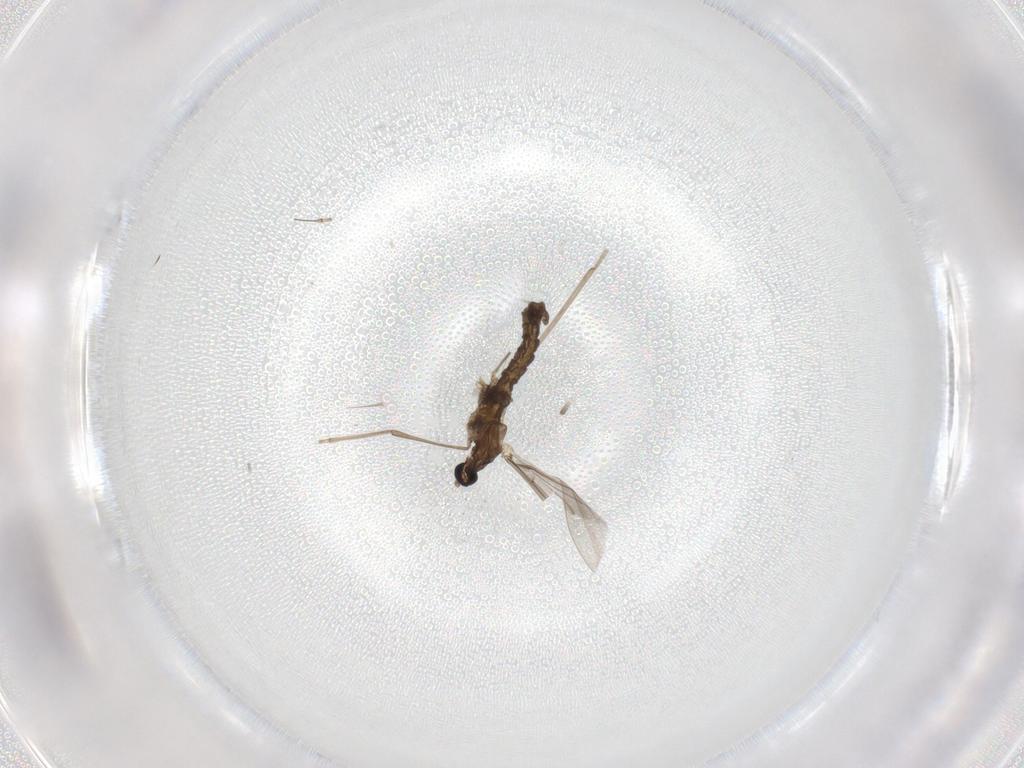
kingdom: Animalia
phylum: Arthropoda
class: Insecta
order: Diptera
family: Cecidomyiidae
